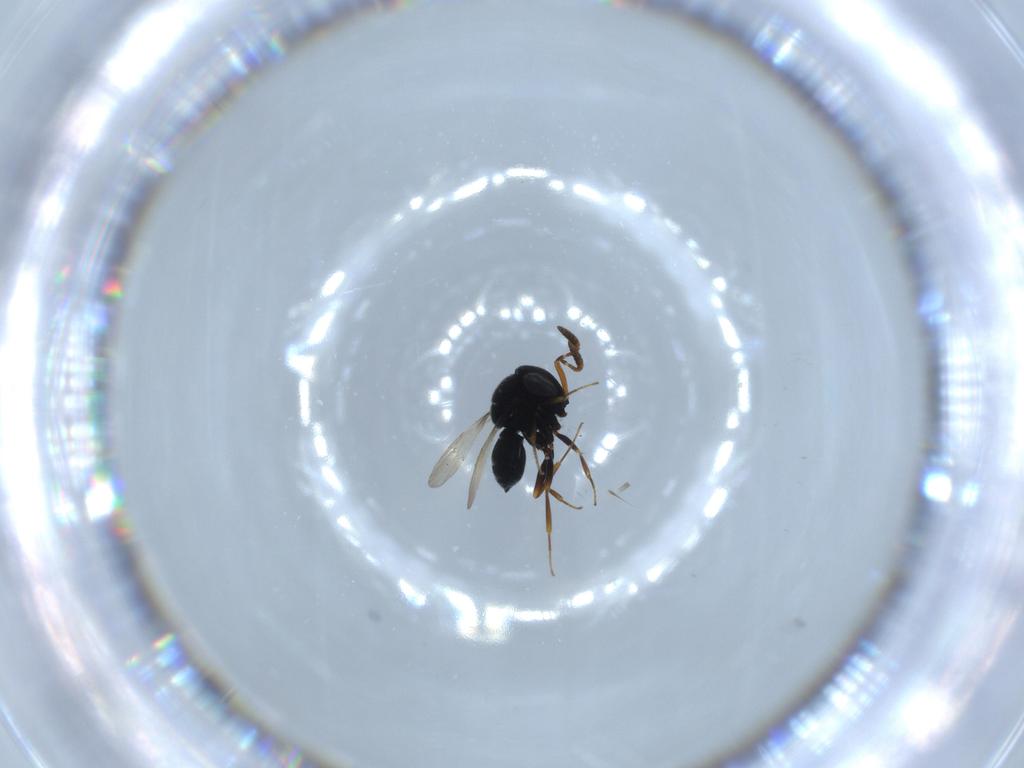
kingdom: Animalia
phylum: Arthropoda
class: Insecta
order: Hymenoptera
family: Scelionidae
